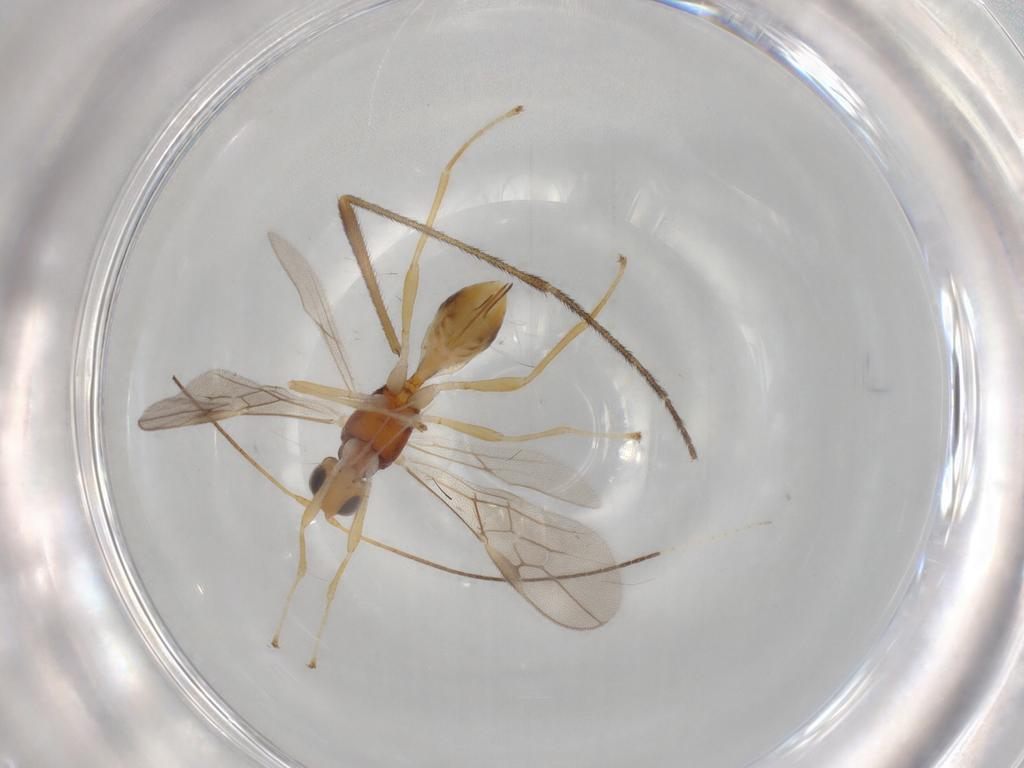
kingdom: Animalia
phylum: Arthropoda
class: Insecta
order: Hymenoptera
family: Braconidae
